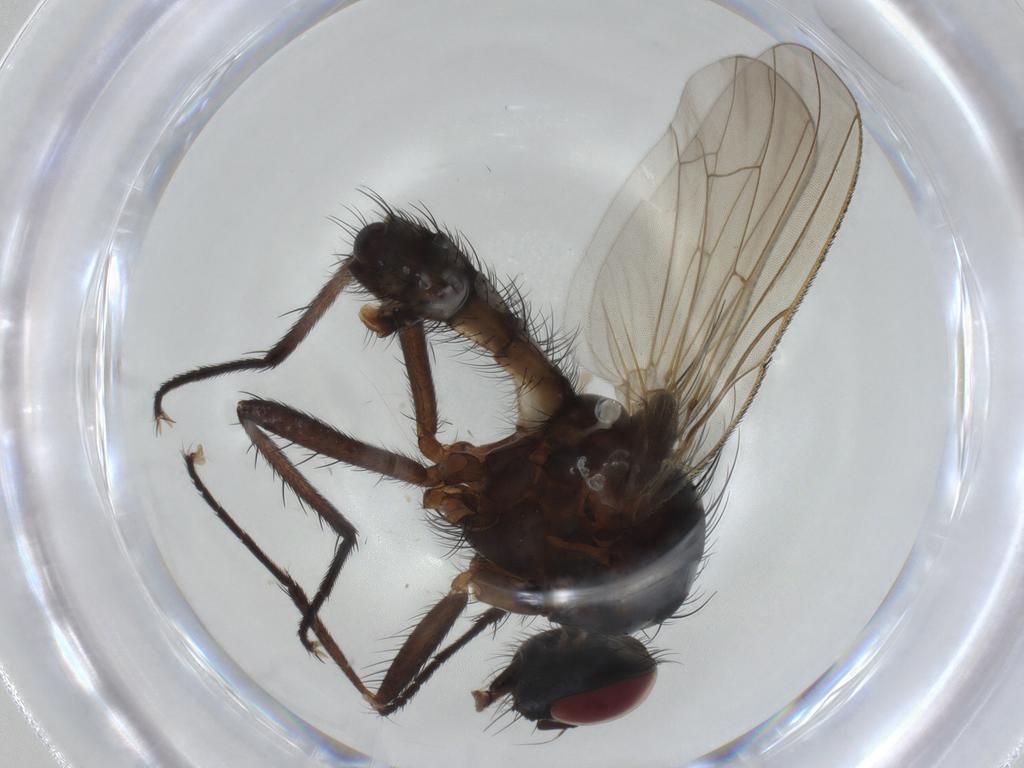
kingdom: Animalia
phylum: Arthropoda
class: Insecta
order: Diptera
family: Anthomyiidae
